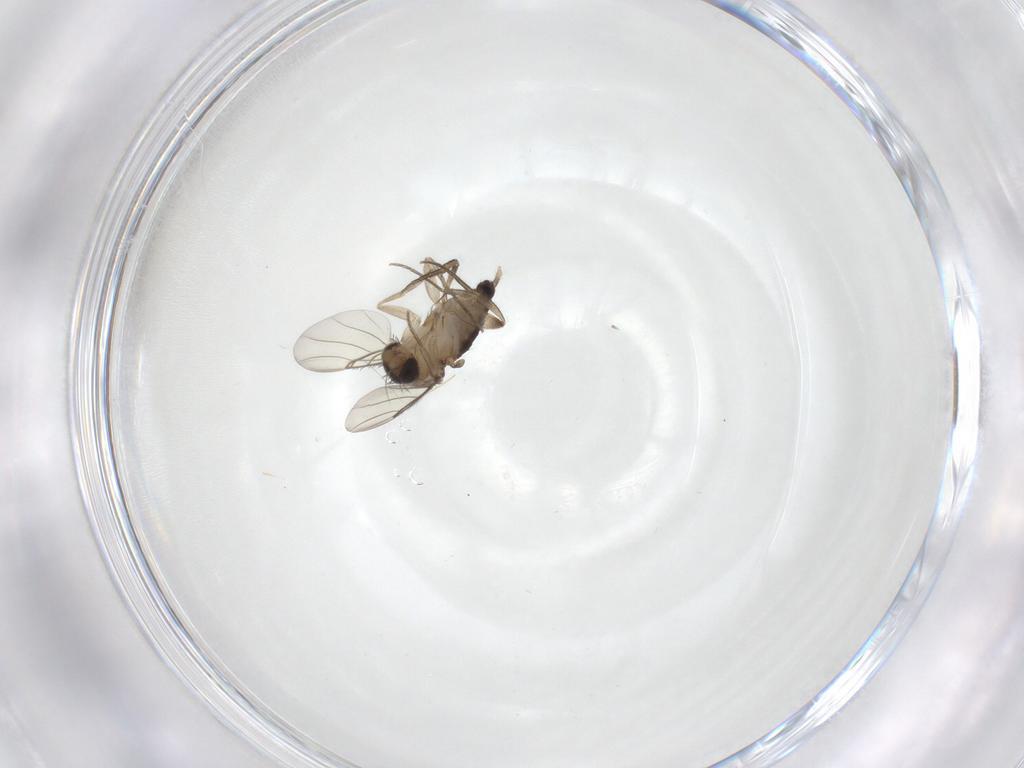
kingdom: Animalia
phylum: Arthropoda
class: Insecta
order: Diptera
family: Phoridae
